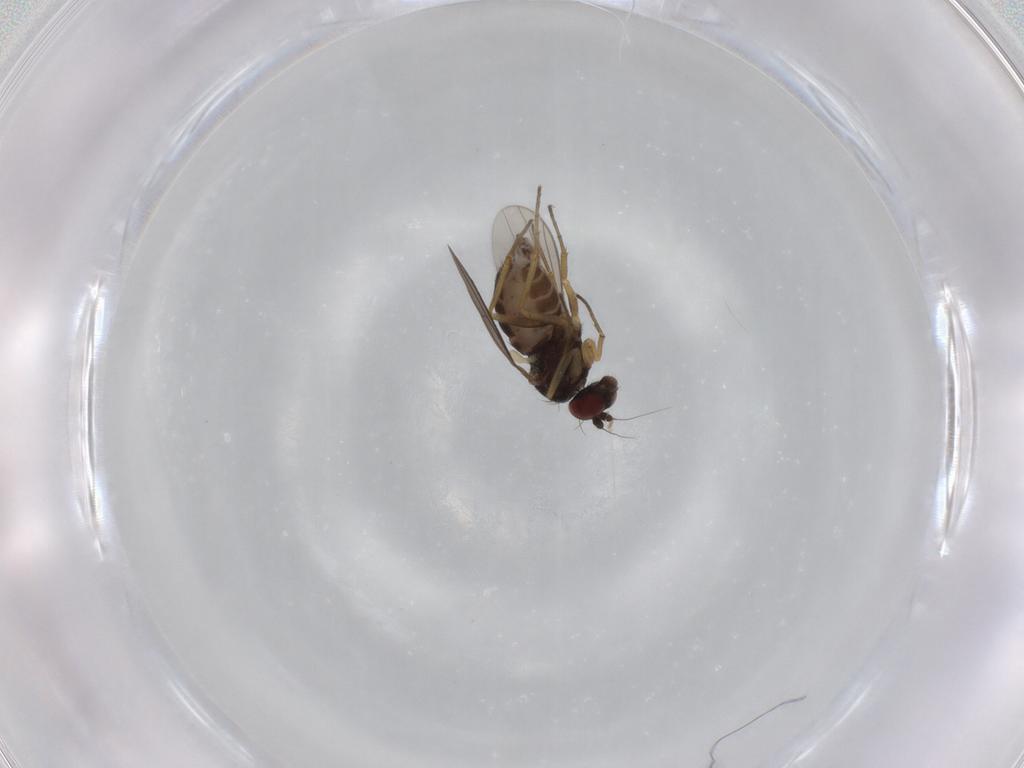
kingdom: Animalia
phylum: Arthropoda
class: Insecta
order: Diptera
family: Dolichopodidae
